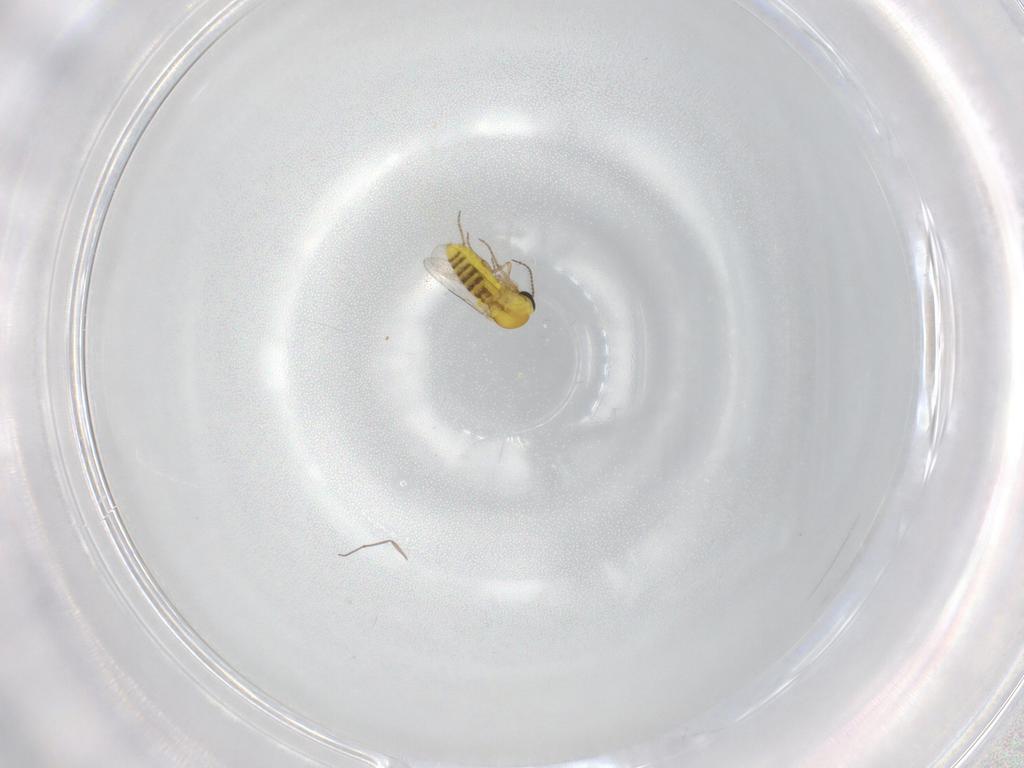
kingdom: Animalia
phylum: Arthropoda
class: Insecta
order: Diptera
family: Ceratopogonidae
